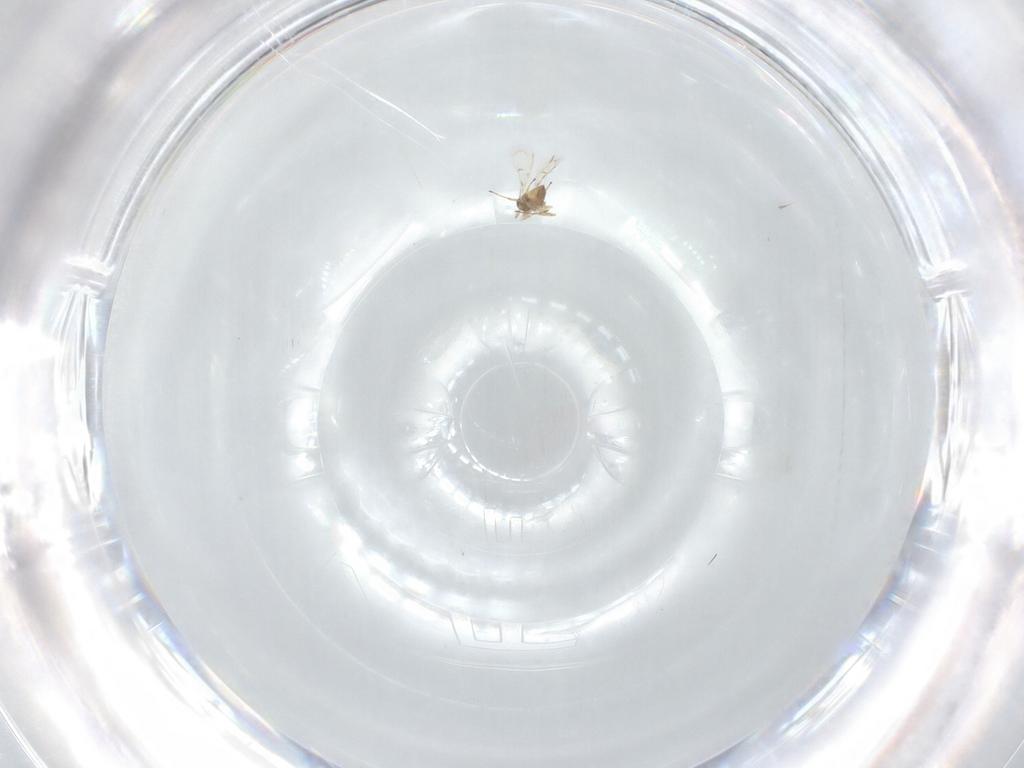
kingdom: Animalia
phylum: Arthropoda
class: Insecta
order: Hymenoptera
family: Trichogrammatidae
